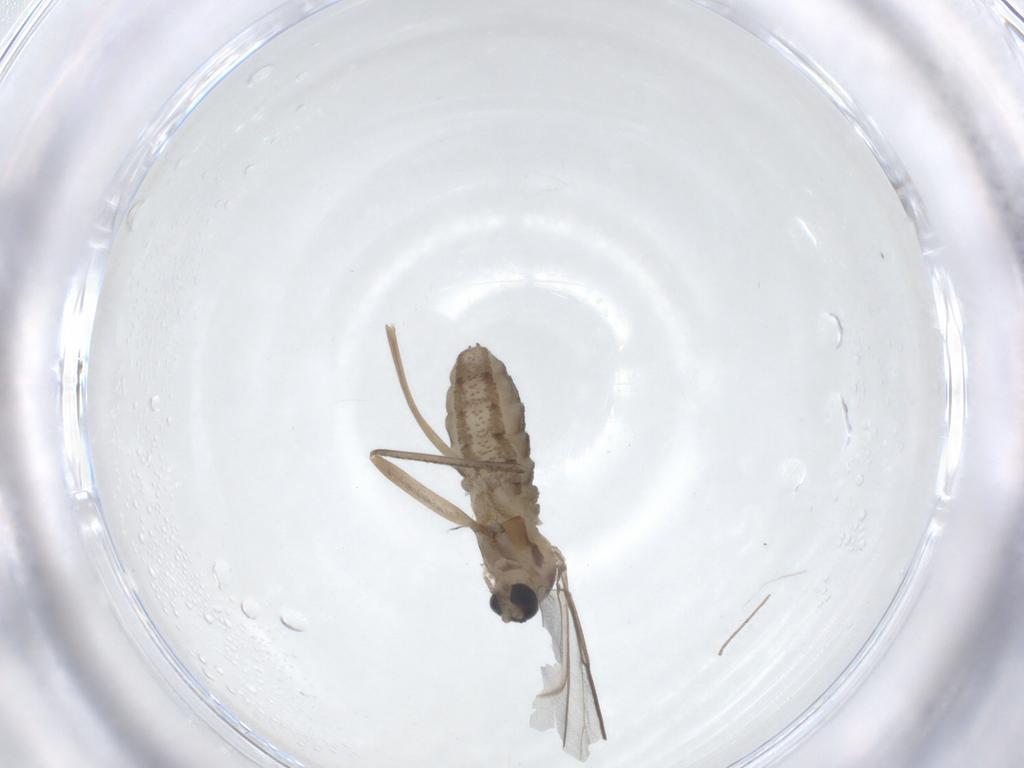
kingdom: Animalia
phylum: Arthropoda
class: Insecta
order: Diptera
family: Cecidomyiidae
